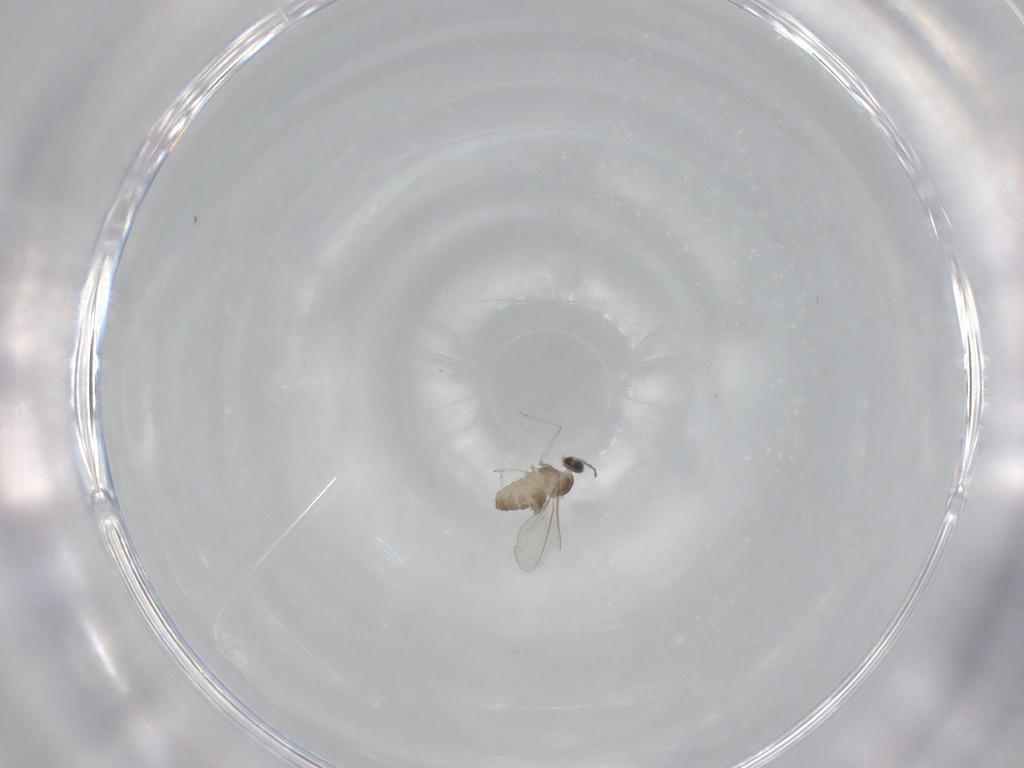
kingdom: Animalia
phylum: Arthropoda
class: Insecta
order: Diptera
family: Cecidomyiidae
